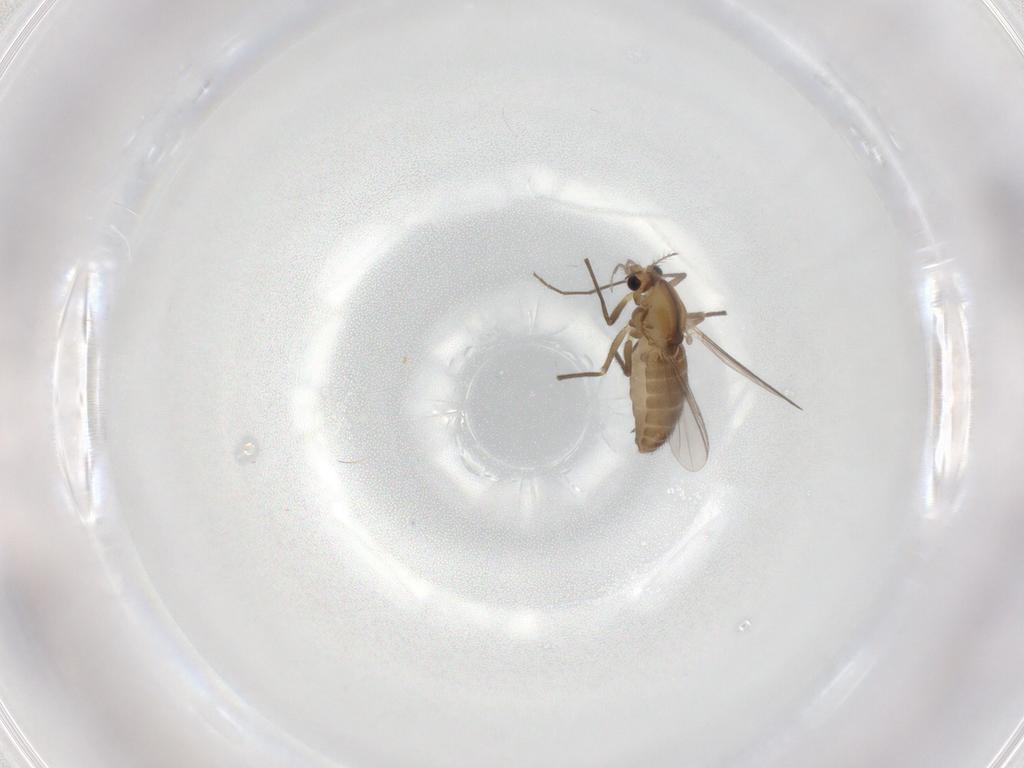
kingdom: Animalia
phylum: Arthropoda
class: Insecta
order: Diptera
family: Chironomidae
